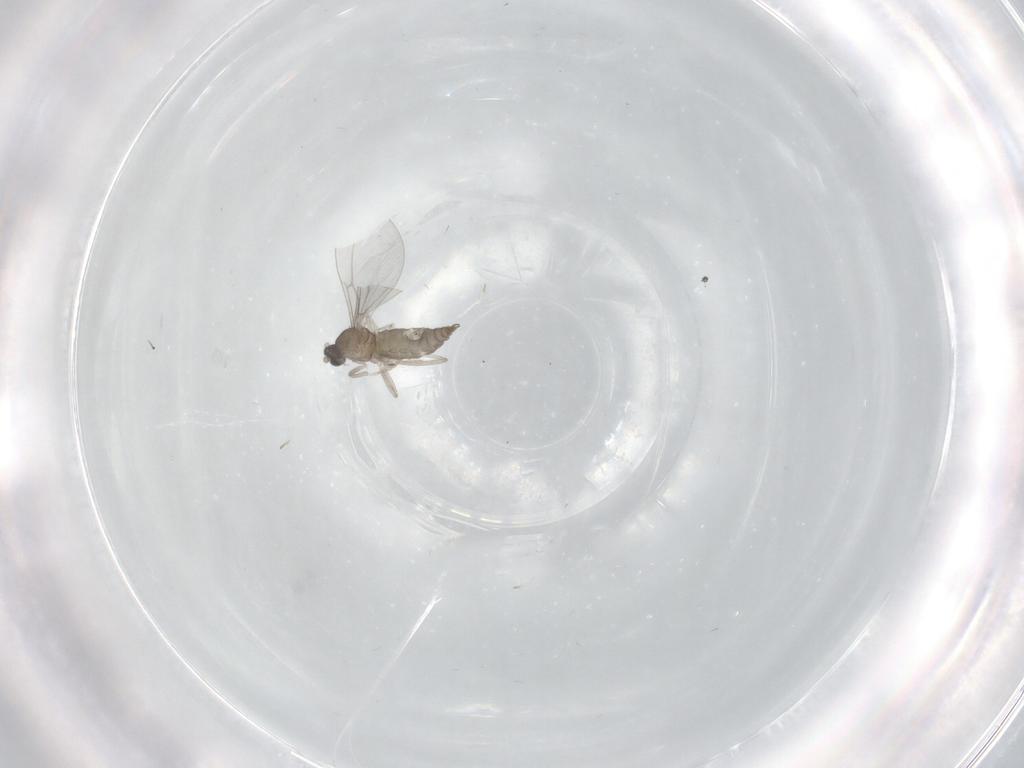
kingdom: Animalia
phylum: Arthropoda
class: Insecta
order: Diptera
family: Cecidomyiidae
